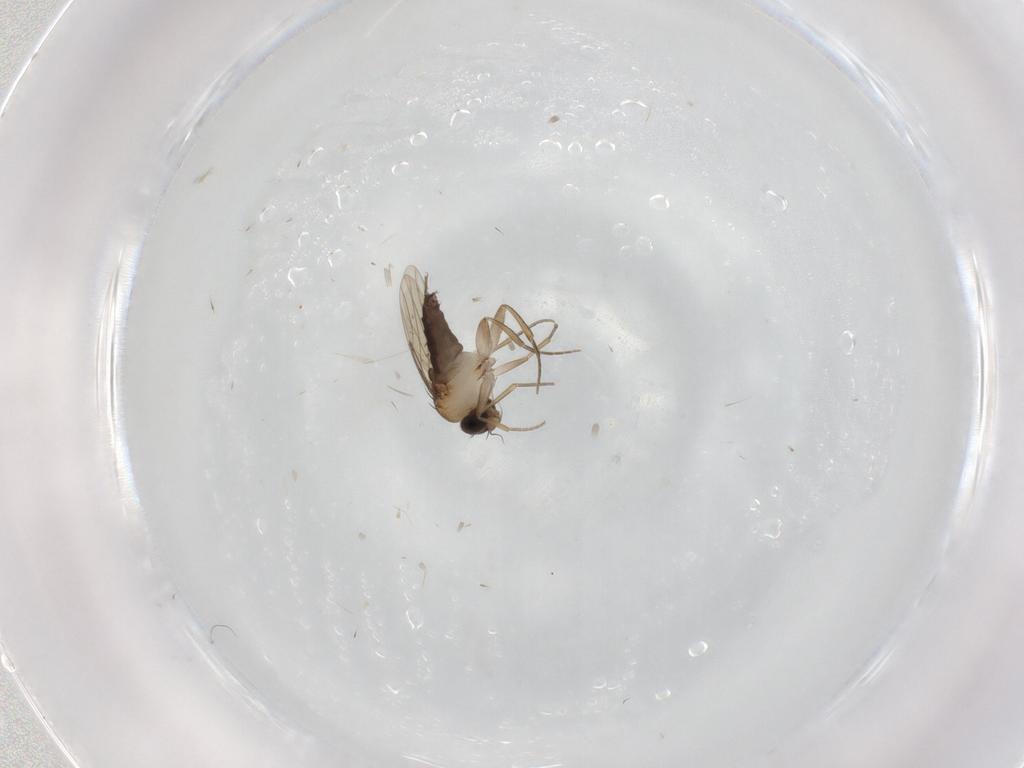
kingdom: Animalia
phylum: Arthropoda
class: Insecta
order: Diptera
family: Phoridae
